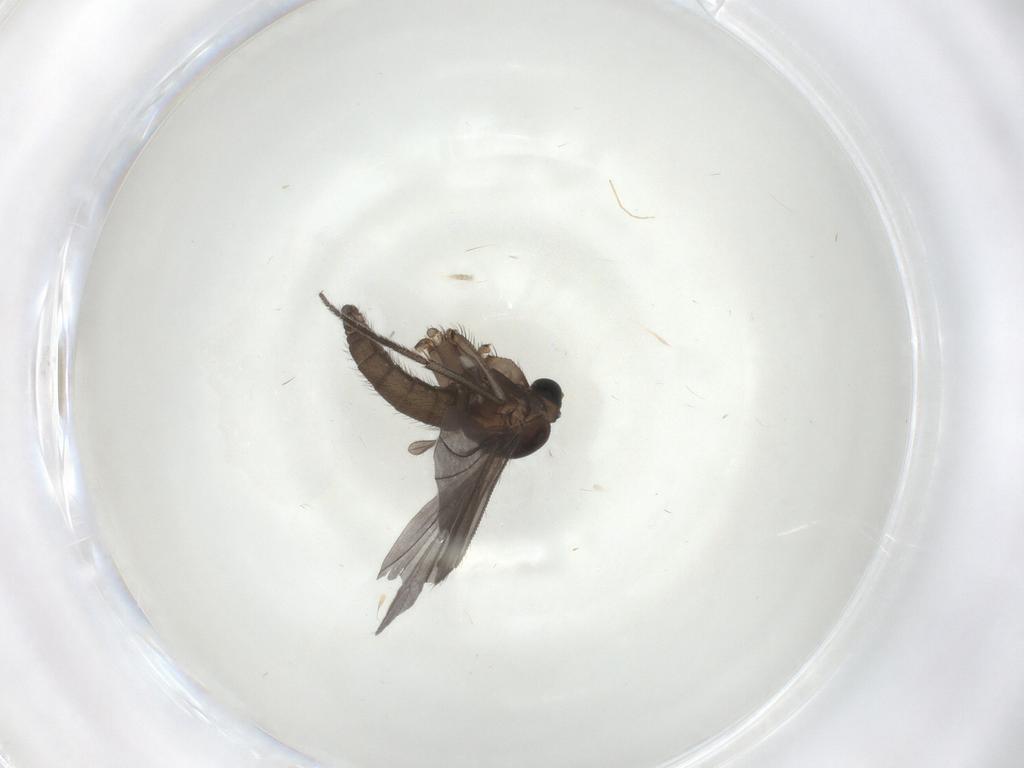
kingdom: Animalia
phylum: Arthropoda
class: Insecta
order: Diptera
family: Sciaridae
